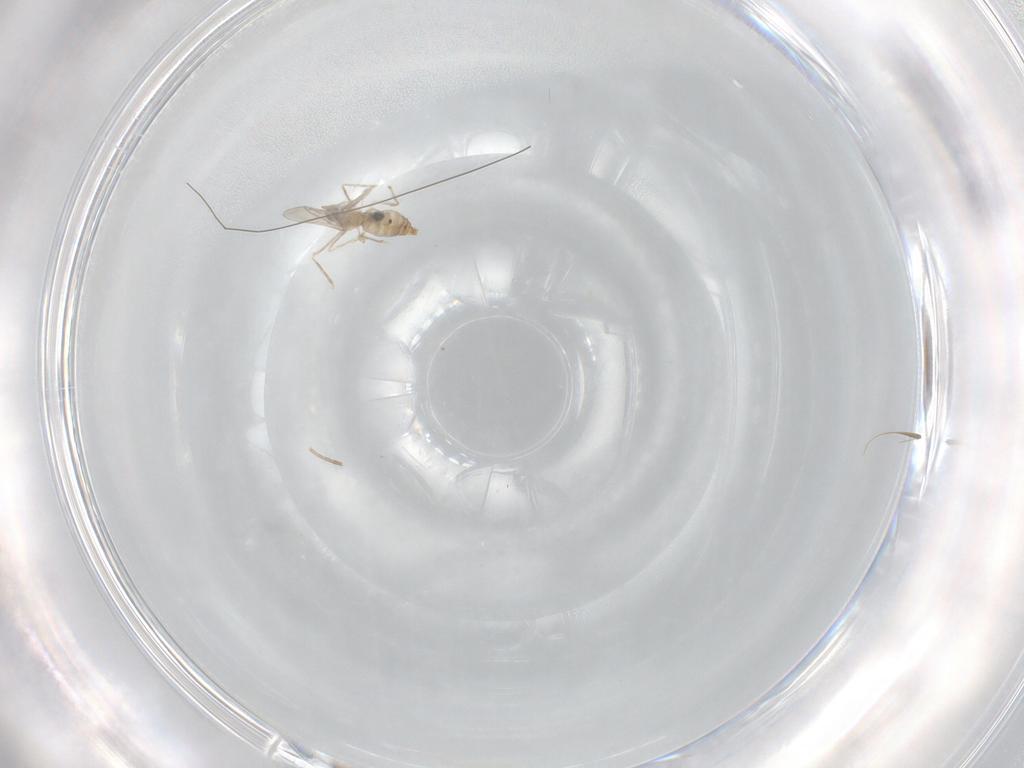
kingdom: Animalia
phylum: Arthropoda
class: Insecta
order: Diptera
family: Cecidomyiidae
